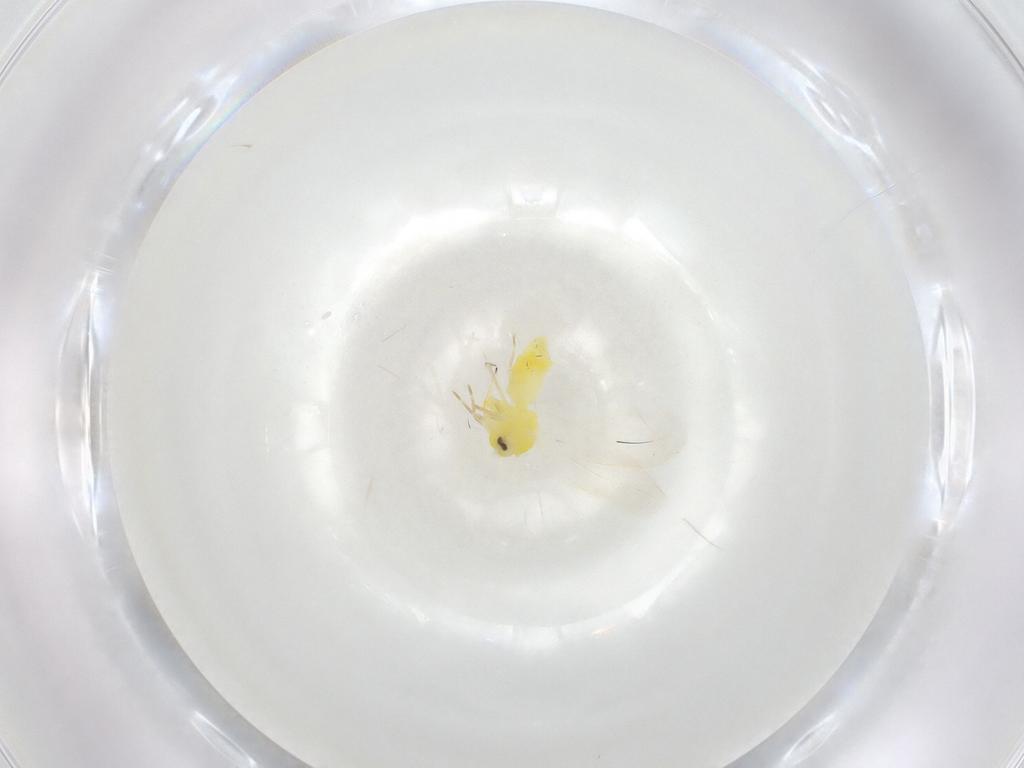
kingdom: Animalia
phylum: Arthropoda
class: Insecta
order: Hemiptera
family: Aleyrodidae
